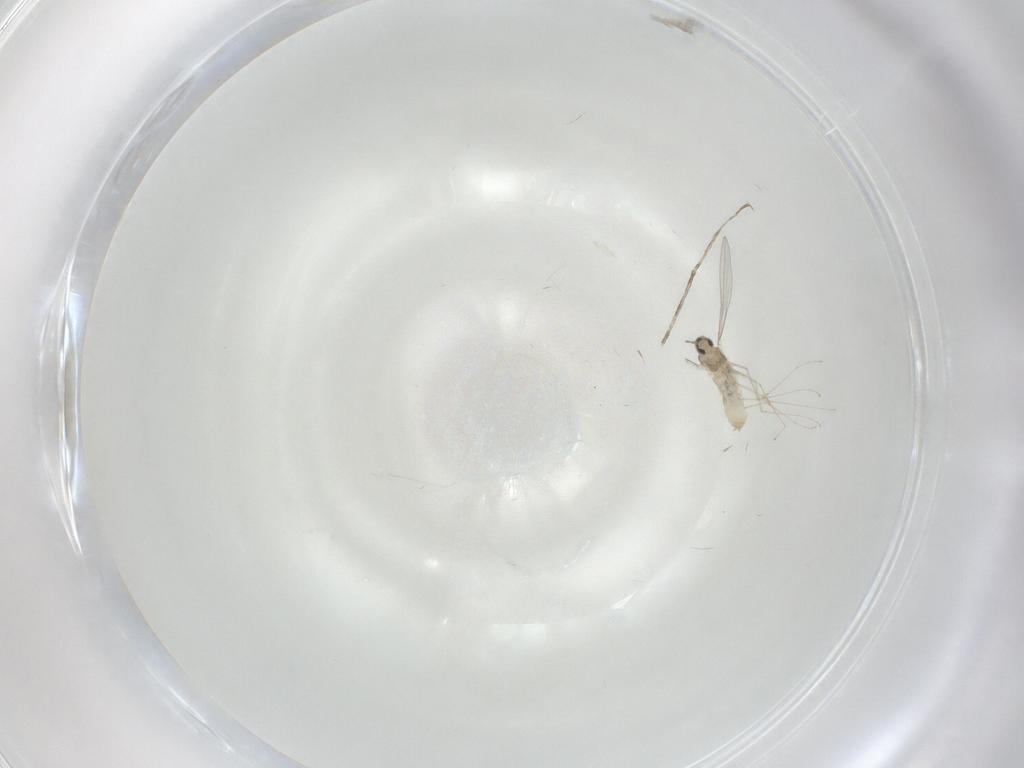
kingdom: Animalia
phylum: Arthropoda
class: Insecta
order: Diptera
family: Cecidomyiidae
